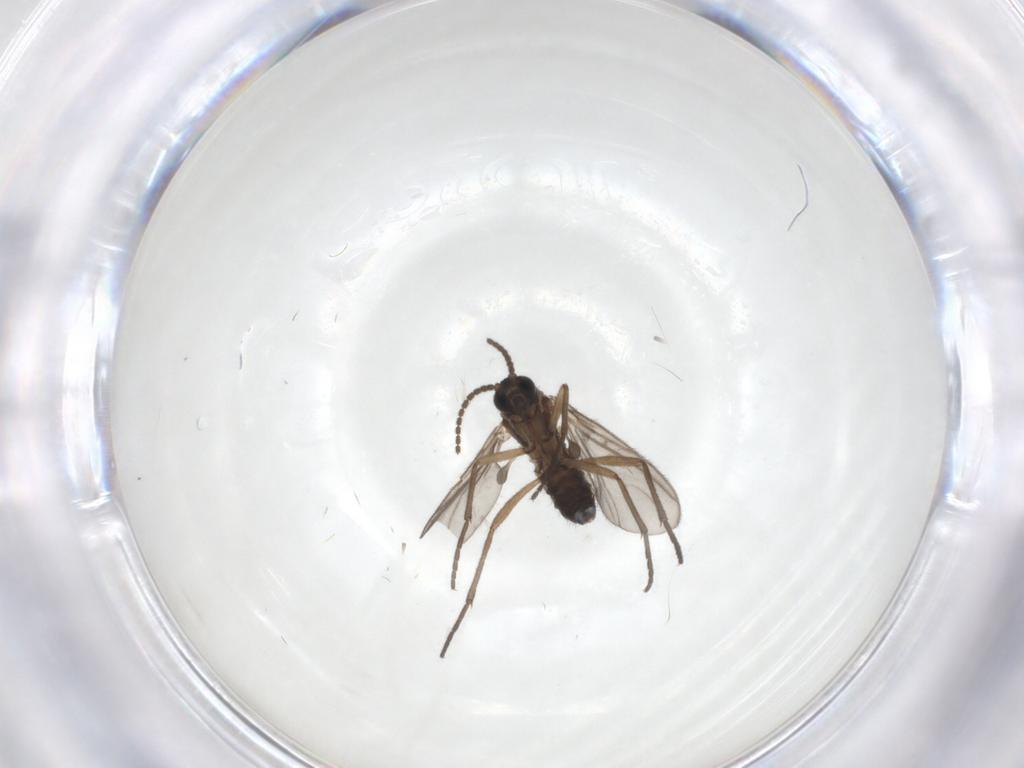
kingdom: Animalia
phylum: Arthropoda
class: Insecta
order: Diptera
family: Sciaridae
